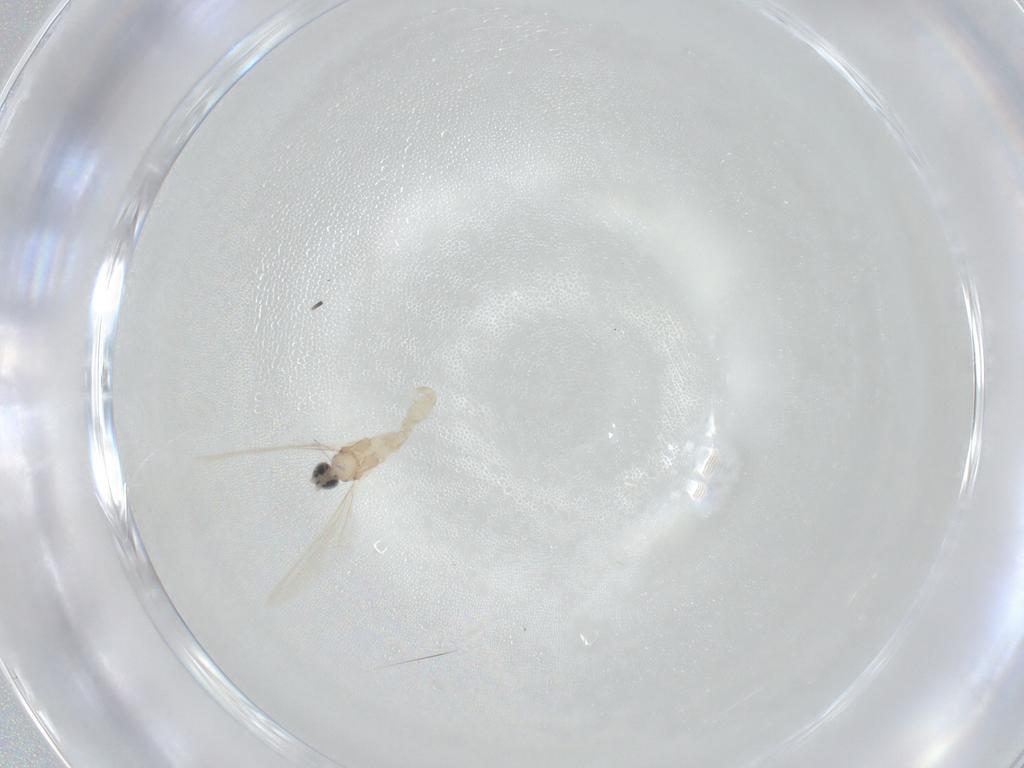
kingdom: Animalia
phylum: Arthropoda
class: Insecta
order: Diptera
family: Cecidomyiidae
